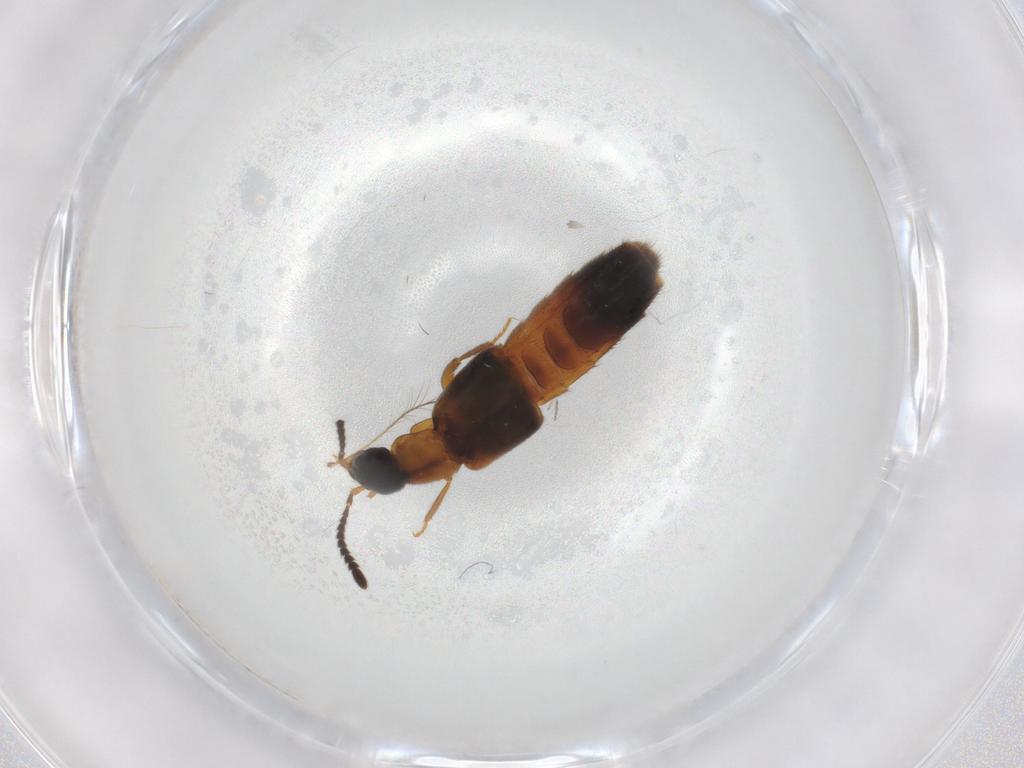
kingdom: Animalia
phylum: Arthropoda
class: Insecta
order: Coleoptera
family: Staphylinidae
